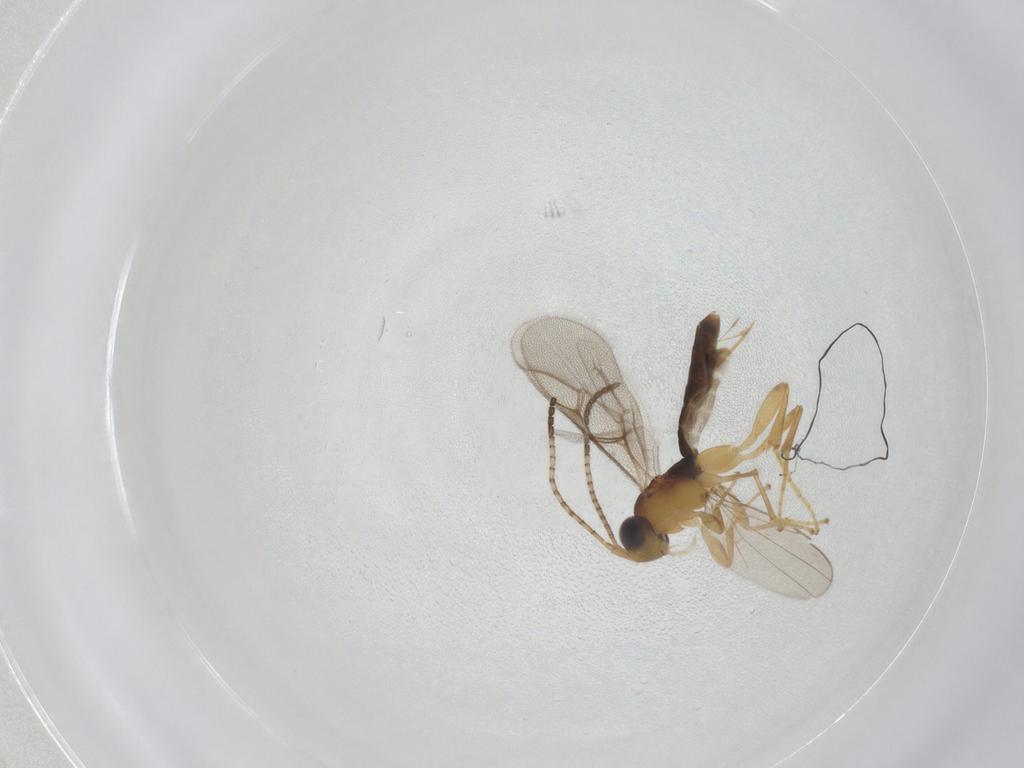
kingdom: Animalia
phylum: Arthropoda
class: Insecta
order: Hymenoptera
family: Ichneumonidae
